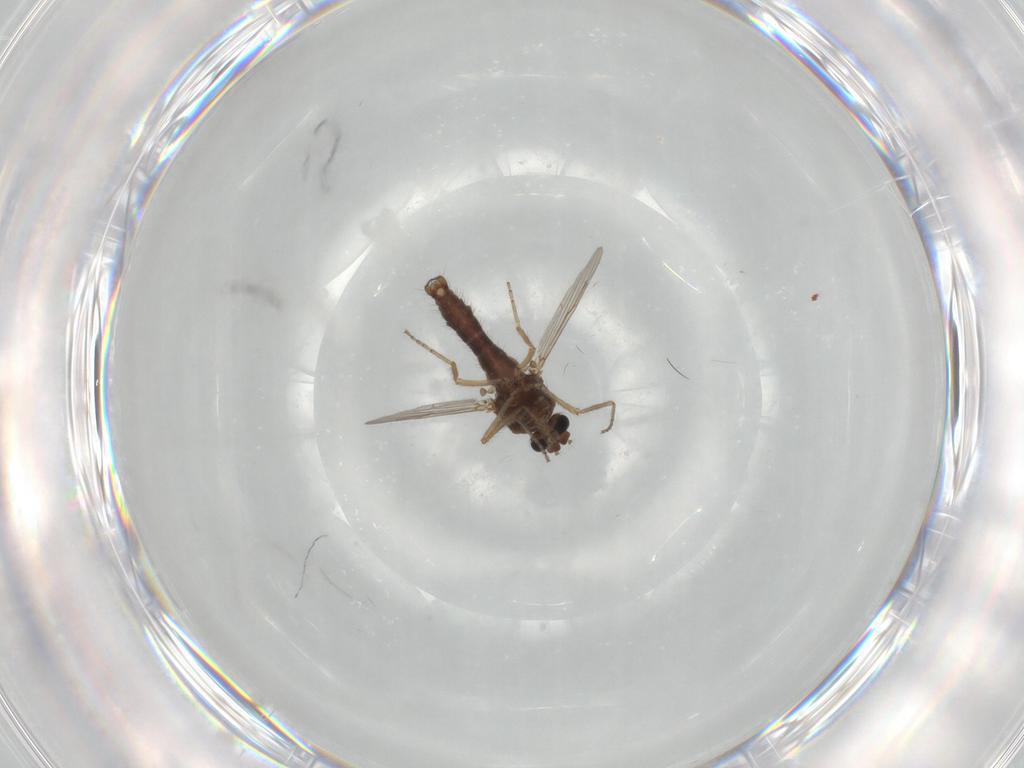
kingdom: Animalia
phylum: Arthropoda
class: Insecta
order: Diptera
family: Ceratopogonidae
